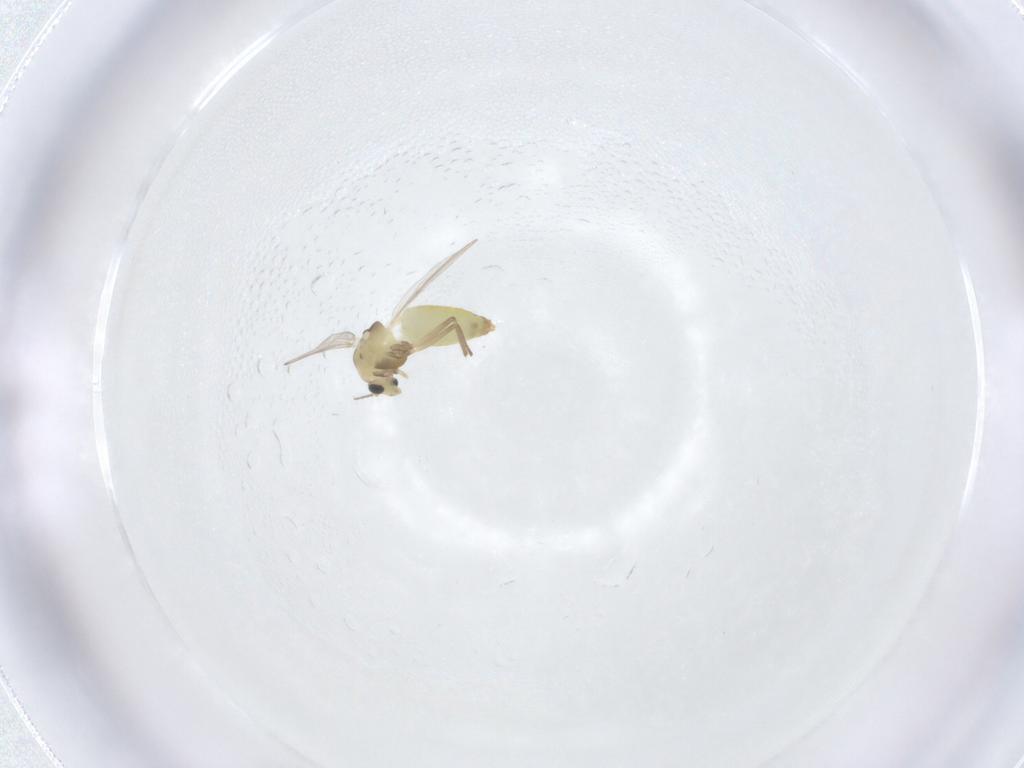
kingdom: Animalia
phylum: Arthropoda
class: Insecta
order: Diptera
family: Chironomidae
